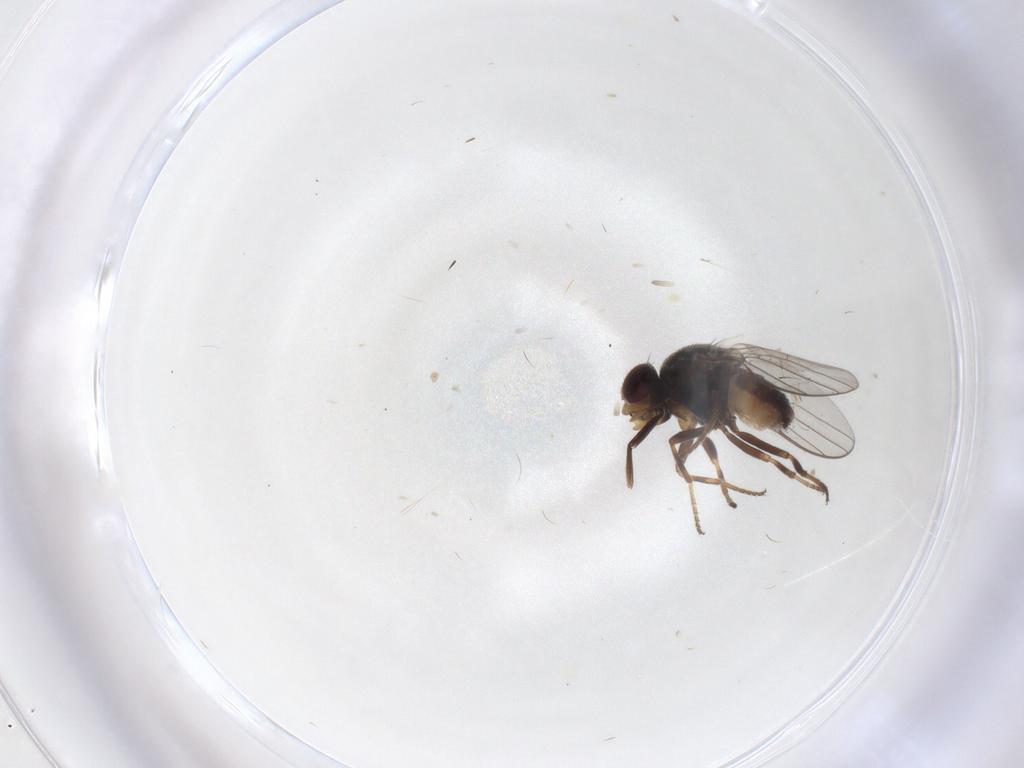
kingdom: Animalia
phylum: Arthropoda
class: Insecta
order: Diptera
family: Chloropidae
